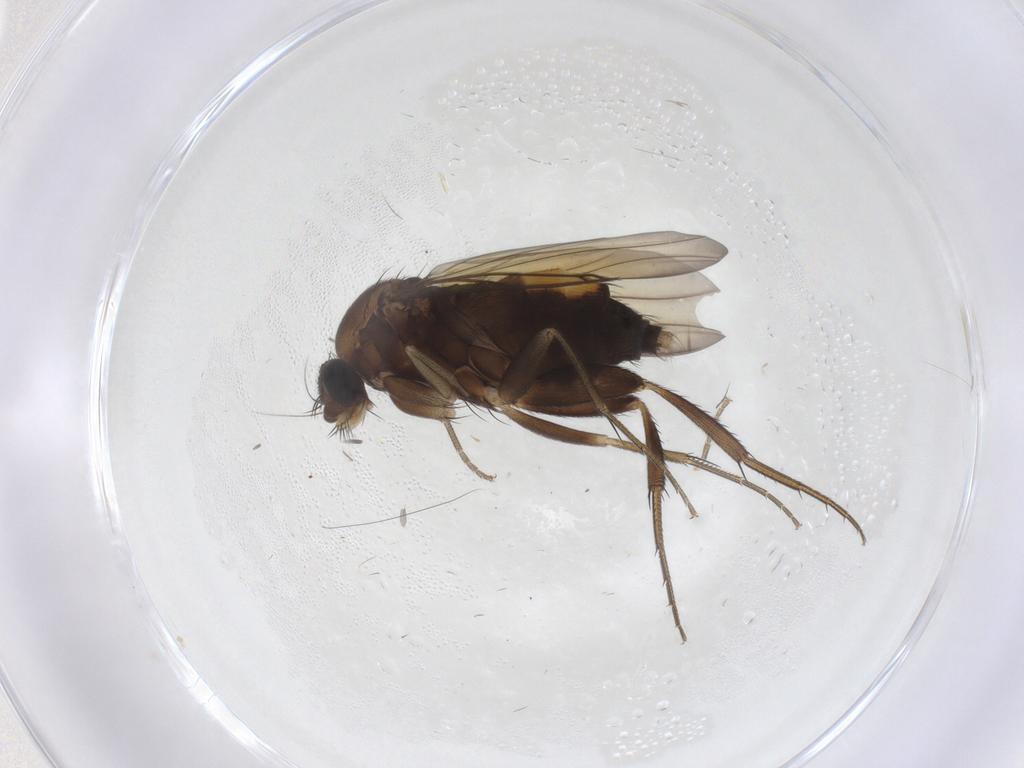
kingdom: Animalia
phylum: Arthropoda
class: Insecta
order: Diptera
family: Phoridae
